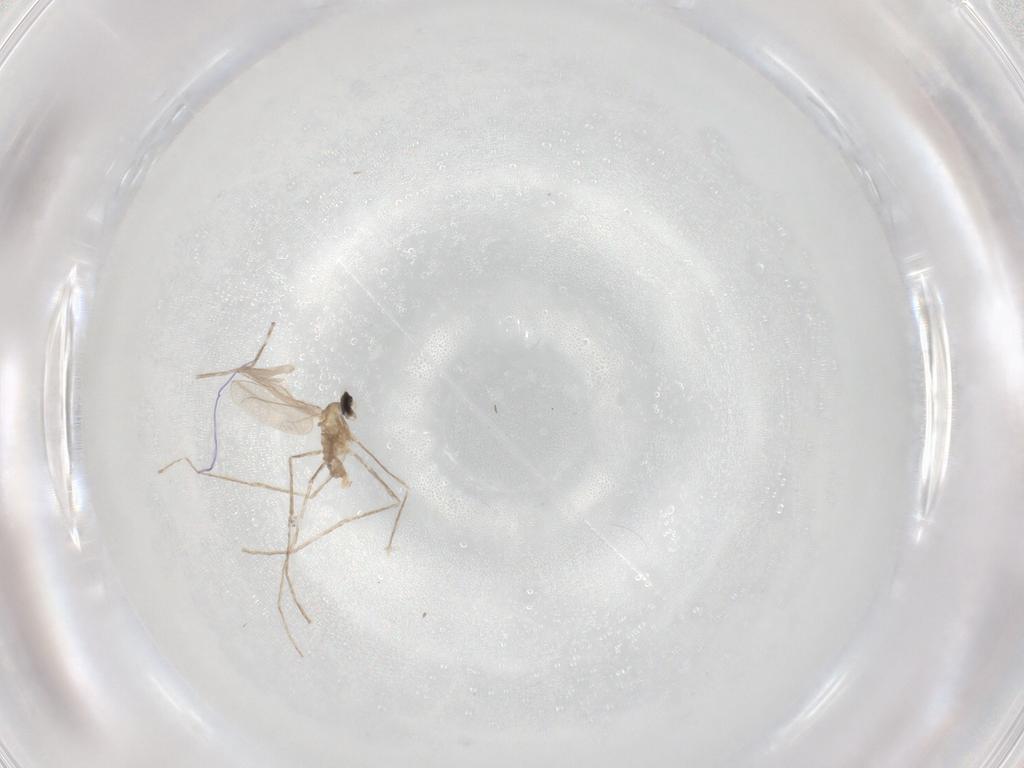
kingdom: Animalia
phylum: Arthropoda
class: Insecta
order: Diptera
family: Cecidomyiidae
